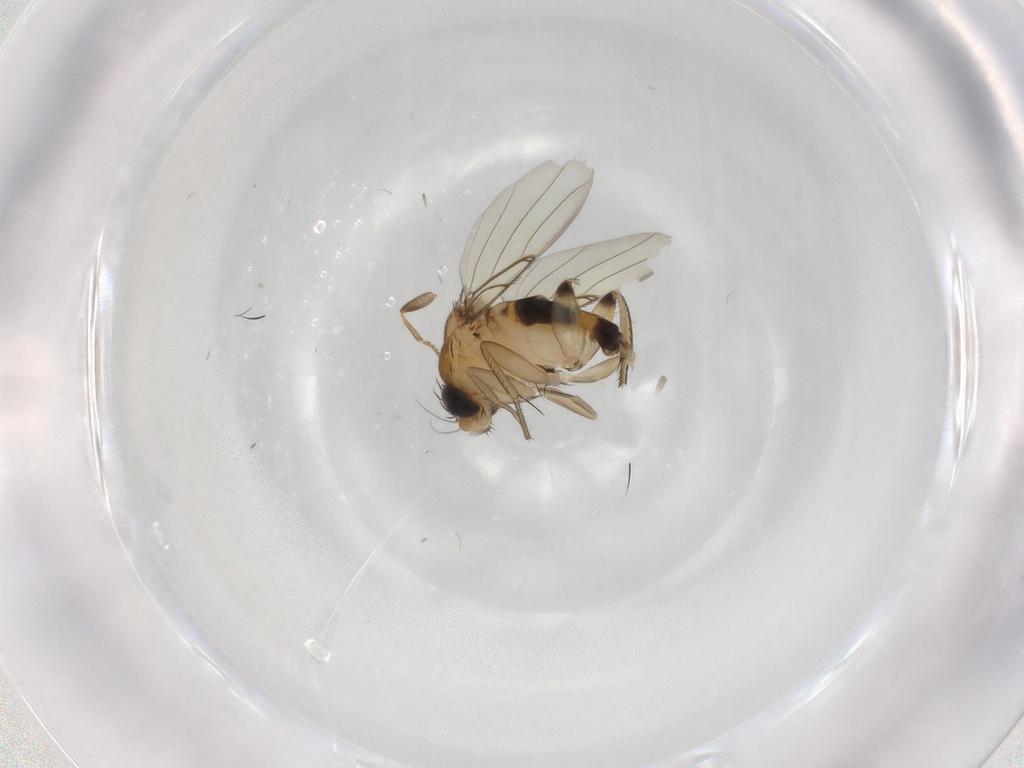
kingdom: Animalia
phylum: Arthropoda
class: Insecta
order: Diptera
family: Phoridae
